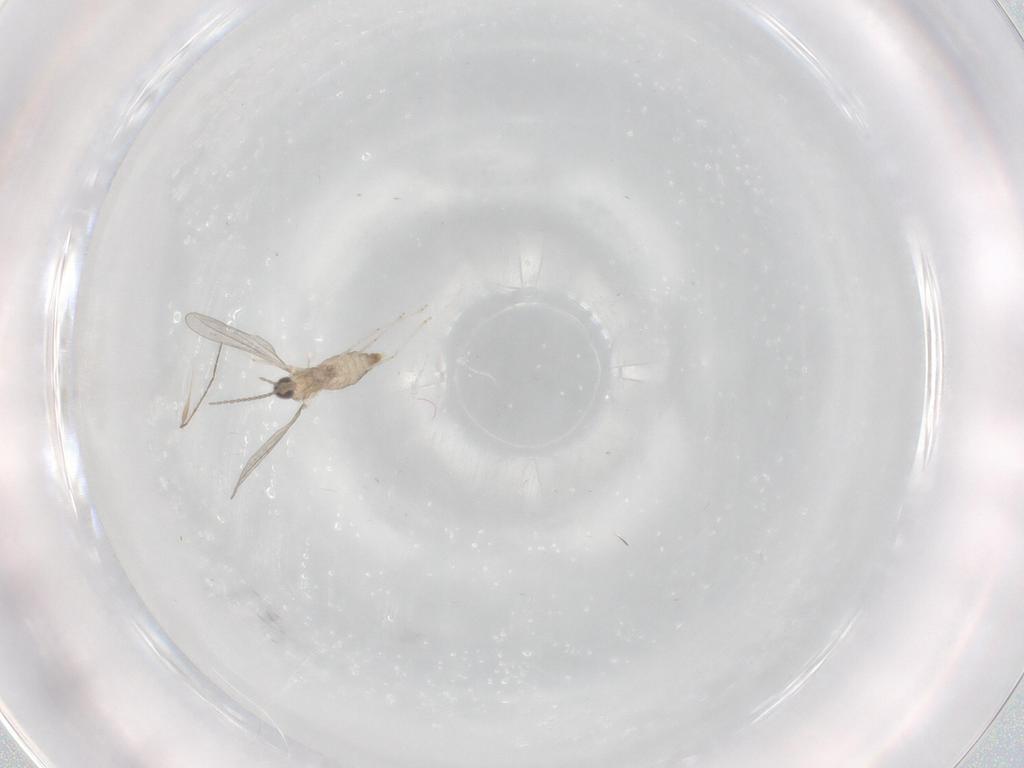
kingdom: Animalia
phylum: Arthropoda
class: Insecta
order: Diptera
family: Cecidomyiidae
